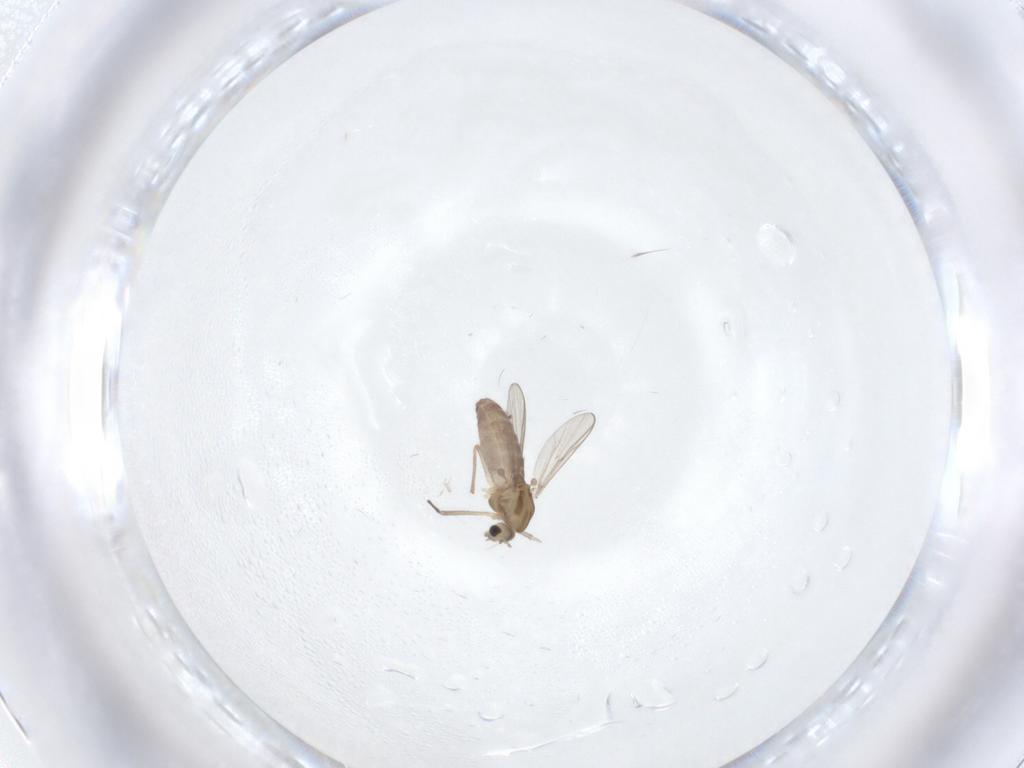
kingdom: Animalia
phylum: Arthropoda
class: Insecta
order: Diptera
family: Chironomidae
